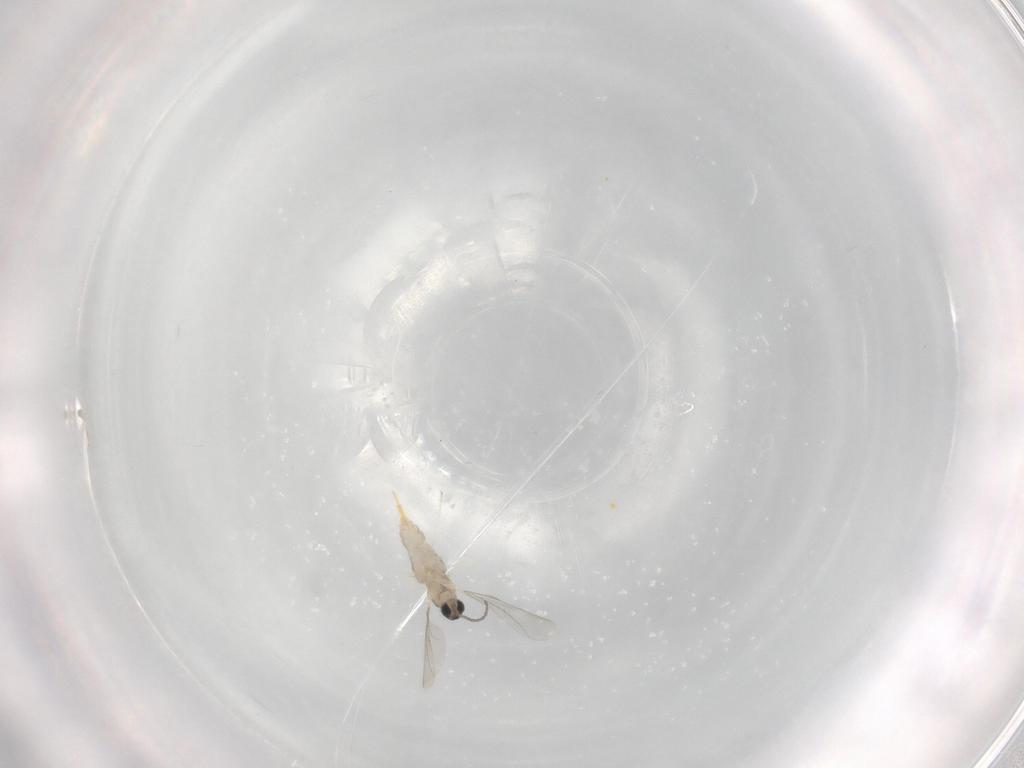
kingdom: Animalia
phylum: Arthropoda
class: Insecta
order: Diptera
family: Cecidomyiidae
